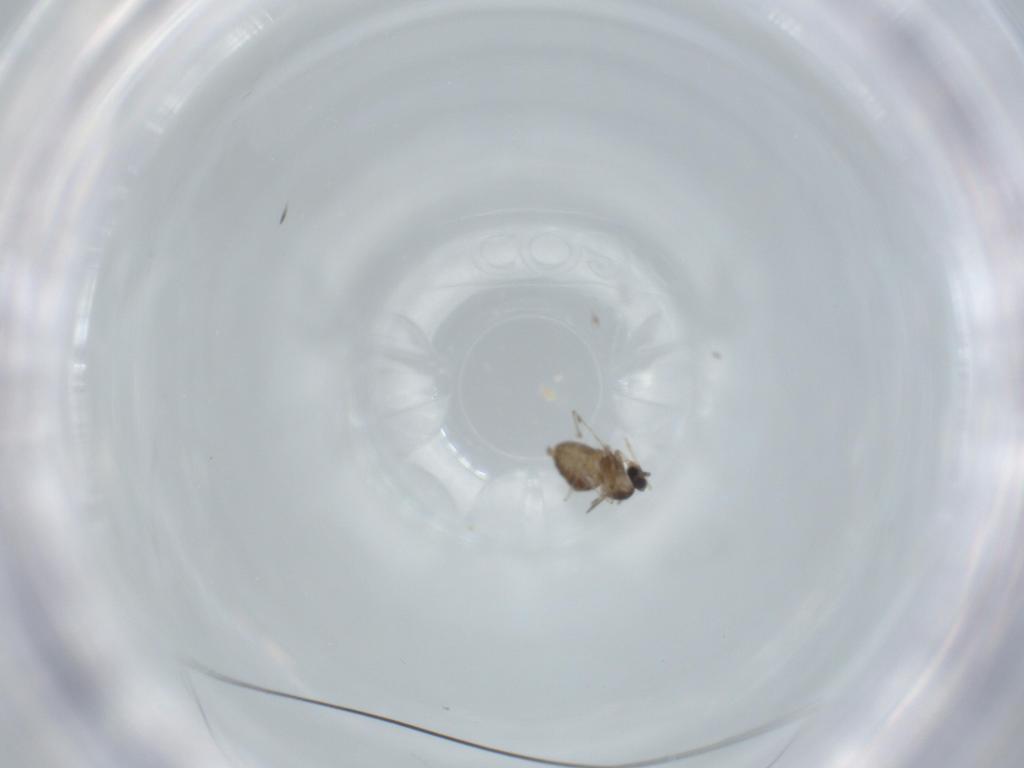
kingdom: Animalia
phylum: Arthropoda
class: Insecta
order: Diptera
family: Cecidomyiidae
